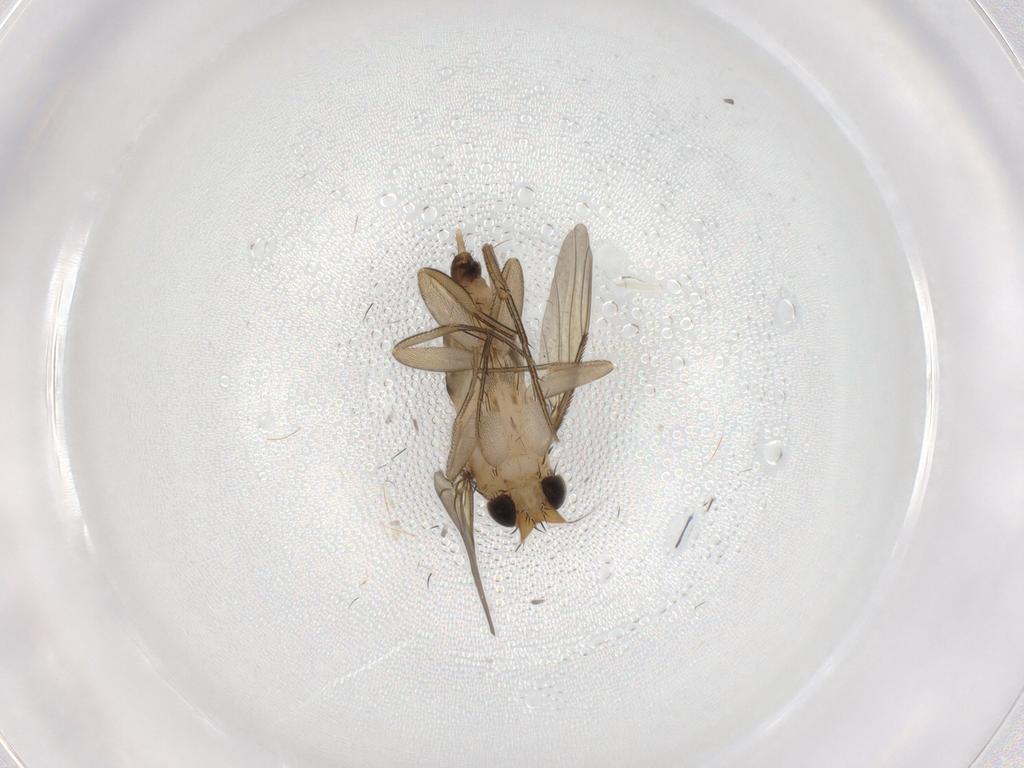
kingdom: Animalia
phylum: Arthropoda
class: Insecta
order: Diptera
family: Phoridae
